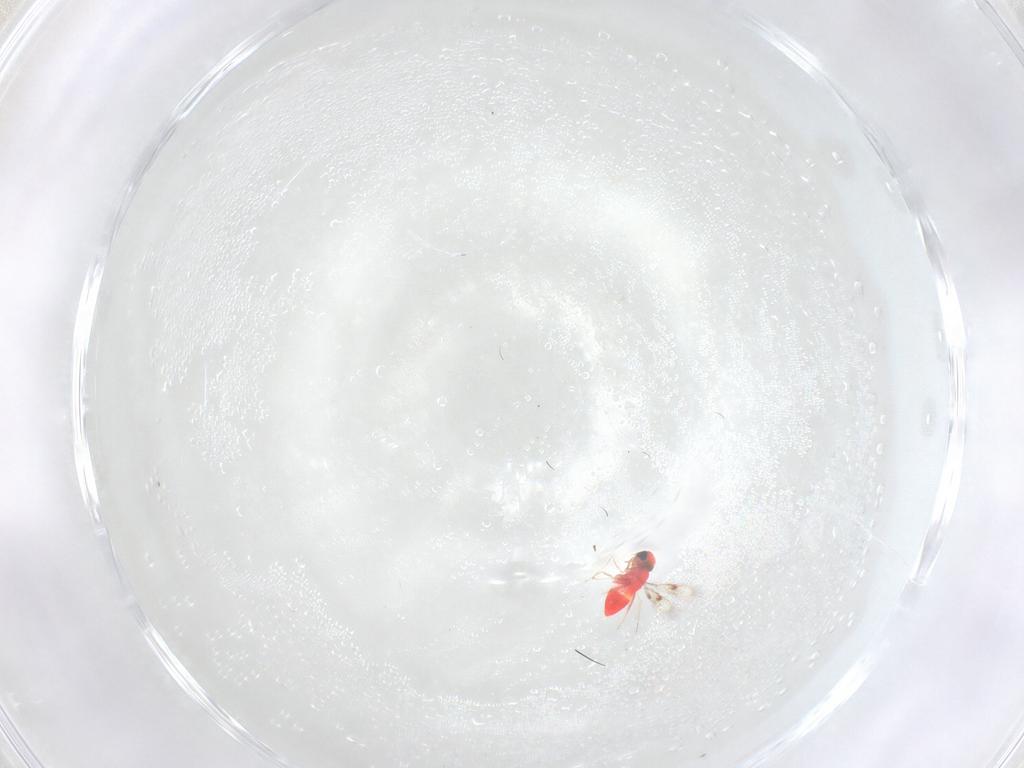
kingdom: Animalia
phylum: Arthropoda
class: Insecta
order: Hymenoptera
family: Trichogrammatidae
